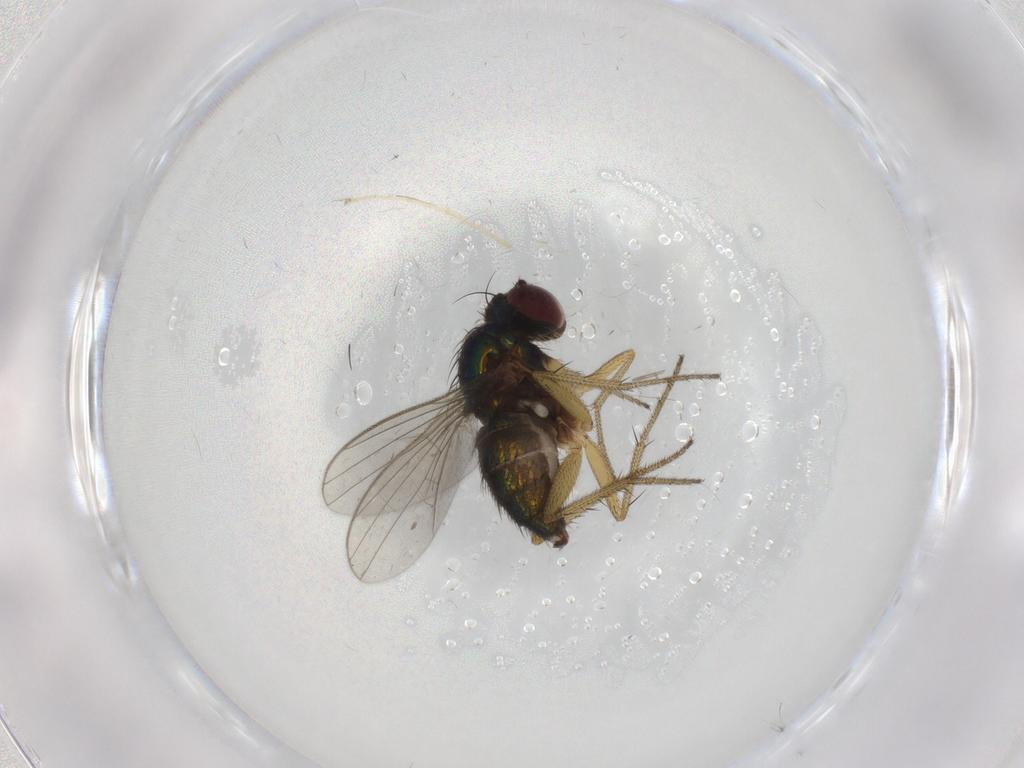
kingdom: Animalia
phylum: Arthropoda
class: Insecta
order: Diptera
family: Dolichopodidae
